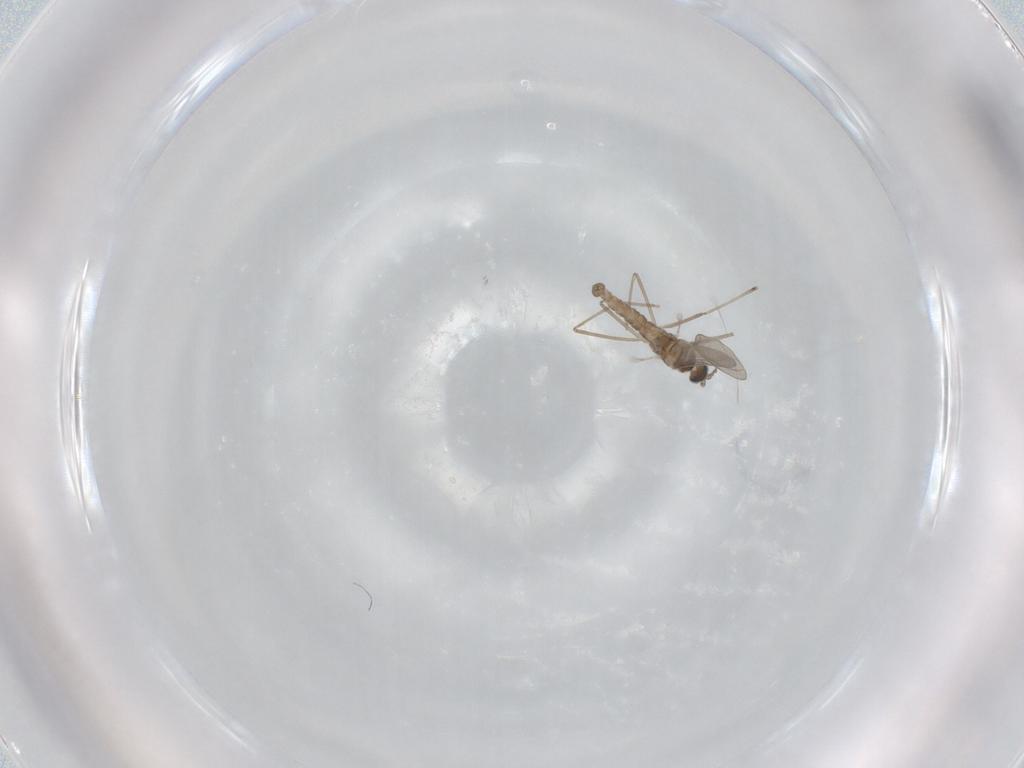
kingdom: Animalia
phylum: Arthropoda
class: Insecta
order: Diptera
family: Cecidomyiidae
